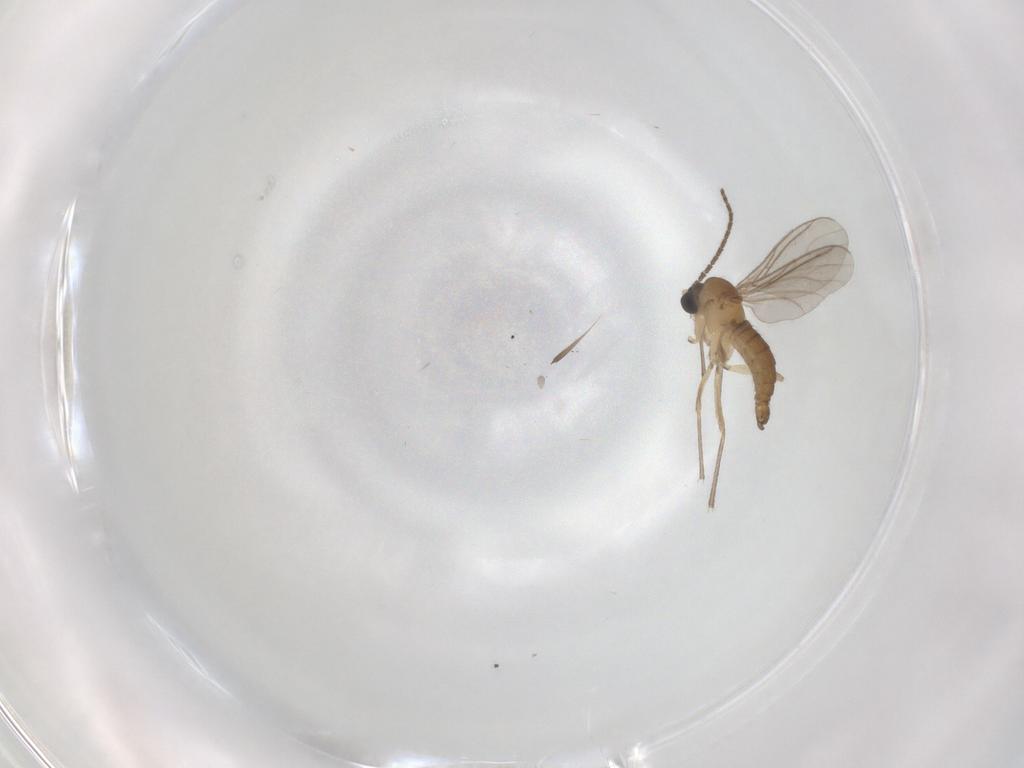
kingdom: Animalia
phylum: Arthropoda
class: Insecta
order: Diptera
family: Sciaridae
